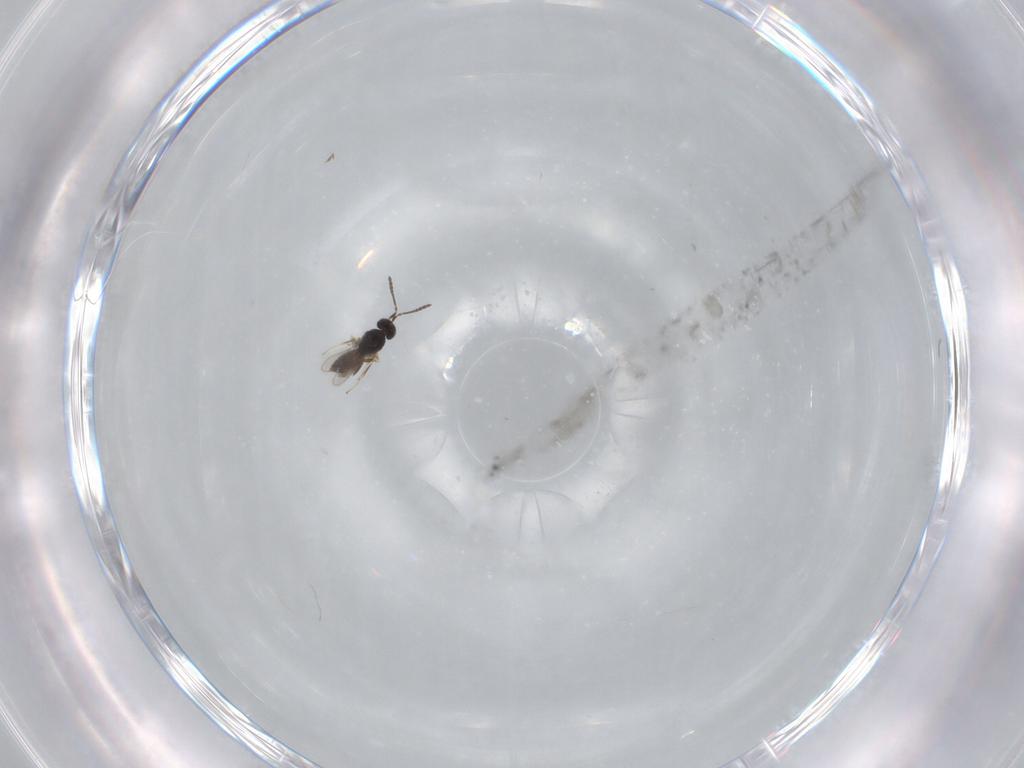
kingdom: Animalia
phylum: Arthropoda
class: Insecta
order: Hymenoptera
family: Scelionidae
